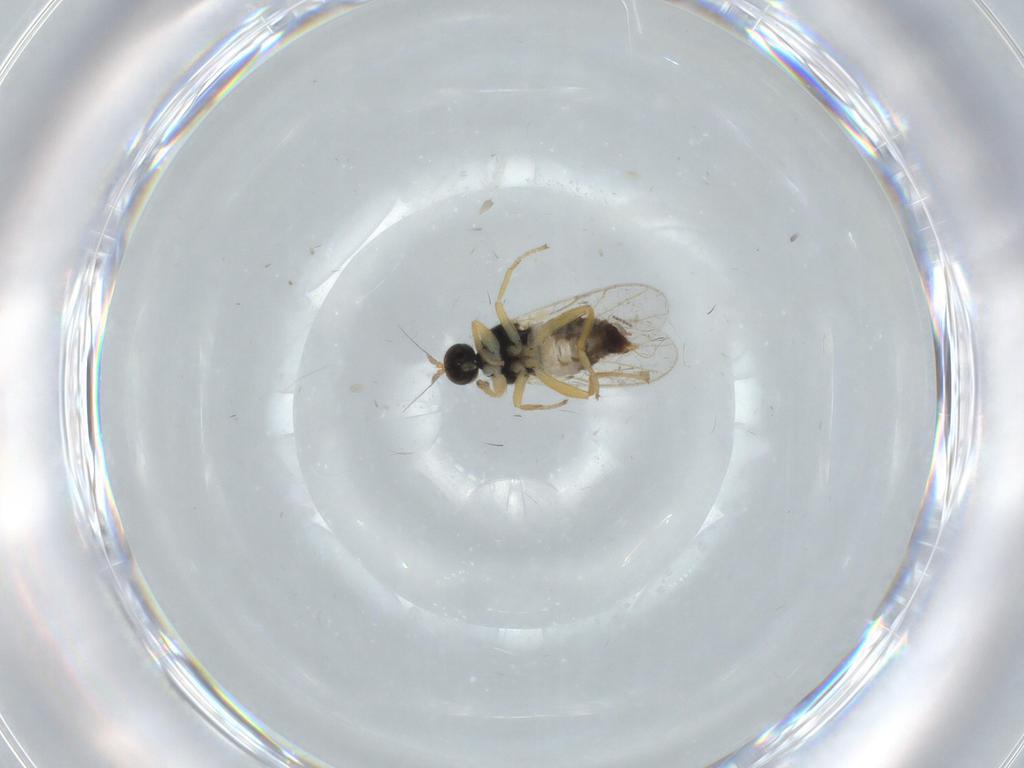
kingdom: Animalia
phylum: Arthropoda
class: Insecta
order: Diptera
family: Hybotidae
